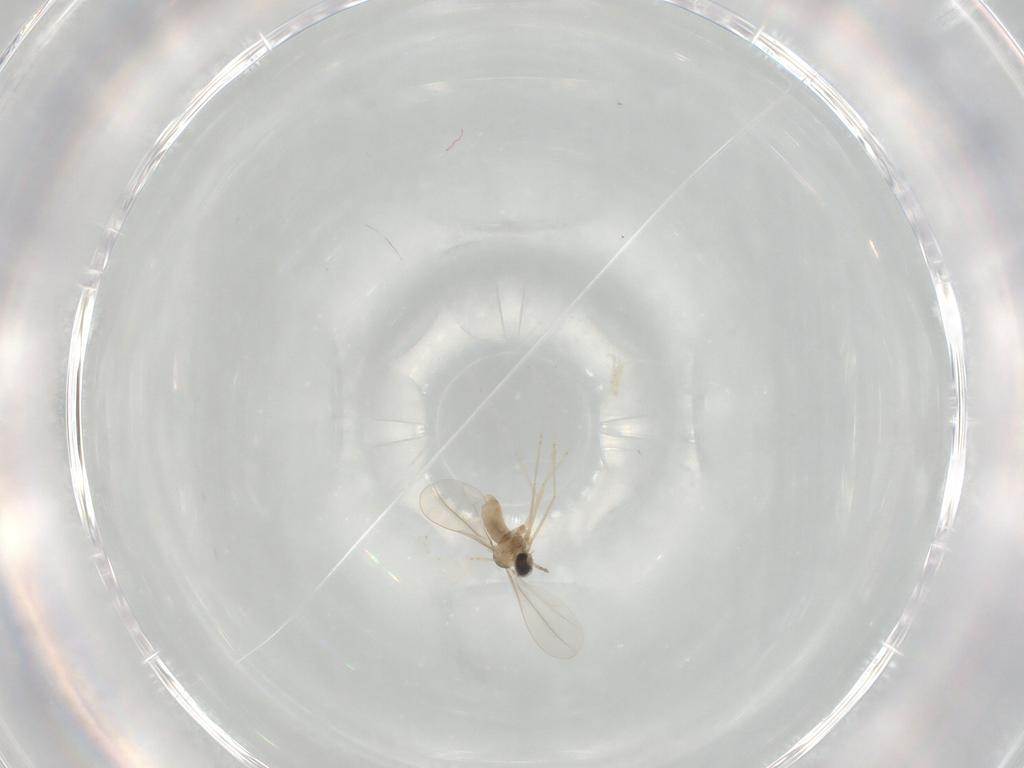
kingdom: Animalia
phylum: Arthropoda
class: Insecta
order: Diptera
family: Cecidomyiidae
